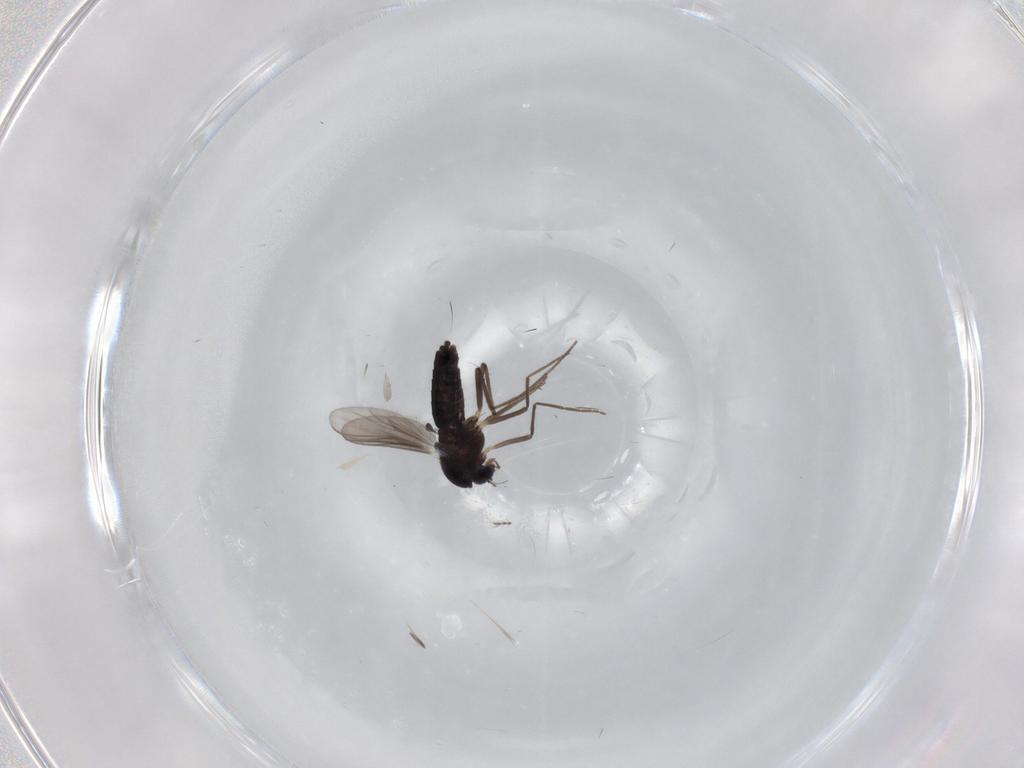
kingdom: Animalia
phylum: Arthropoda
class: Insecta
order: Diptera
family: Chironomidae
